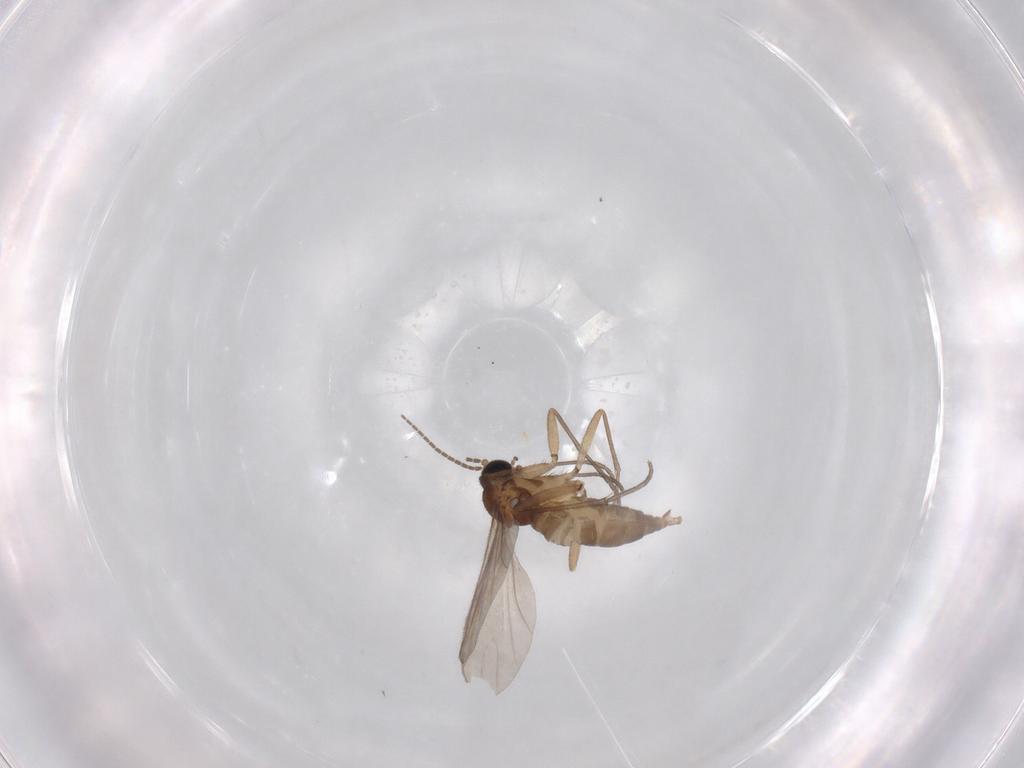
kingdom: Animalia
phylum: Arthropoda
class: Insecta
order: Diptera
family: Sciaridae
